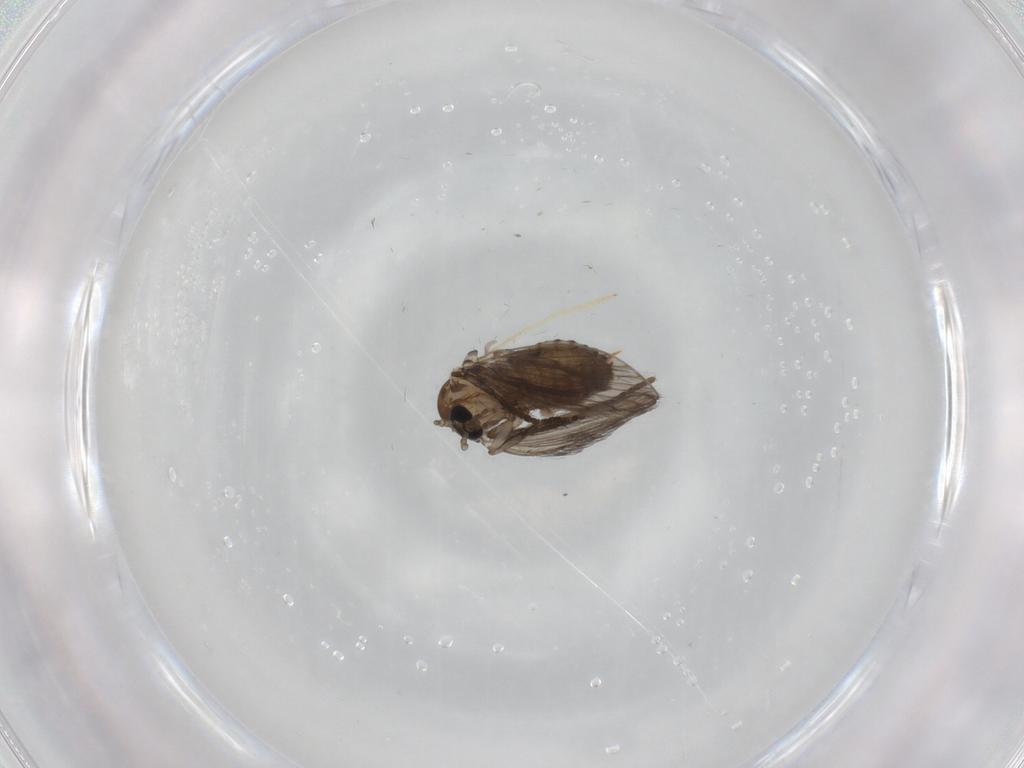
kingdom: Animalia
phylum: Arthropoda
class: Insecta
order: Diptera
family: Psychodidae
